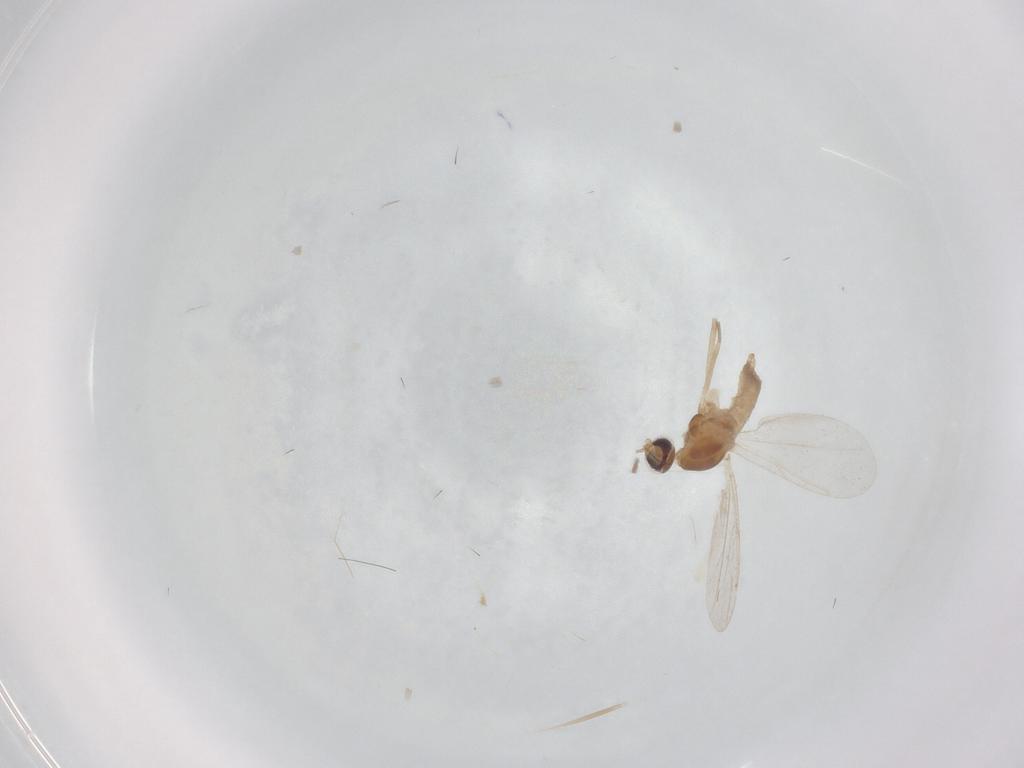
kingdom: Animalia
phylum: Arthropoda
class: Insecta
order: Diptera
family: Cecidomyiidae
